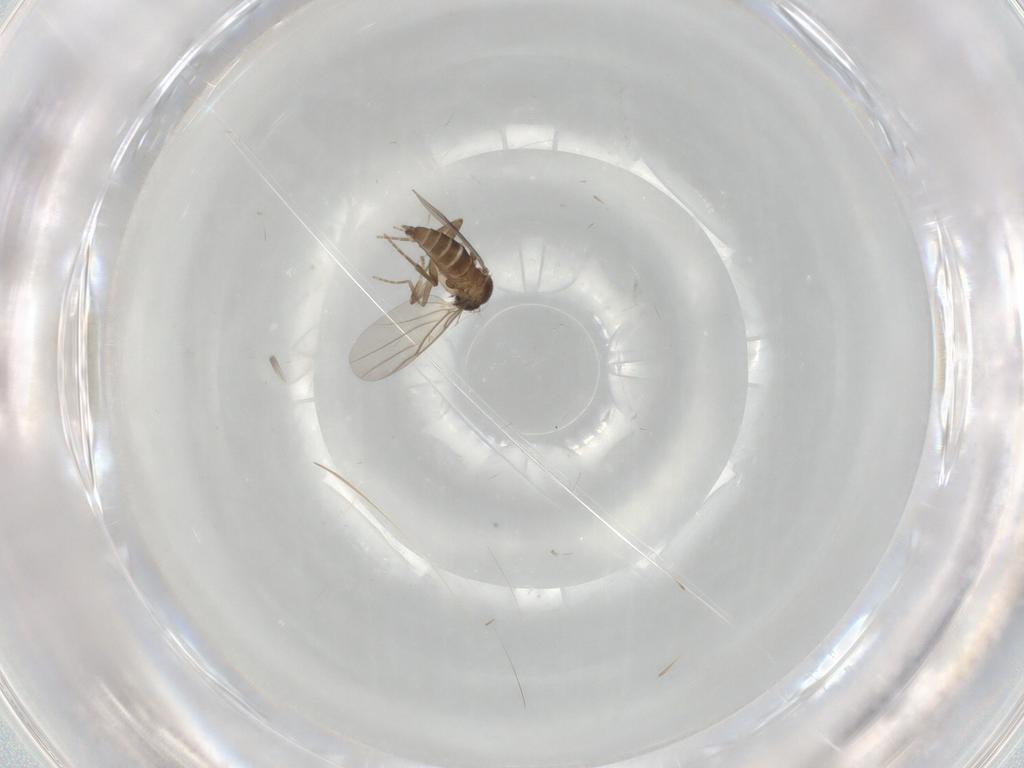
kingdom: Animalia
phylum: Arthropoda
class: Insecta
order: Diptera
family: Phoridae
